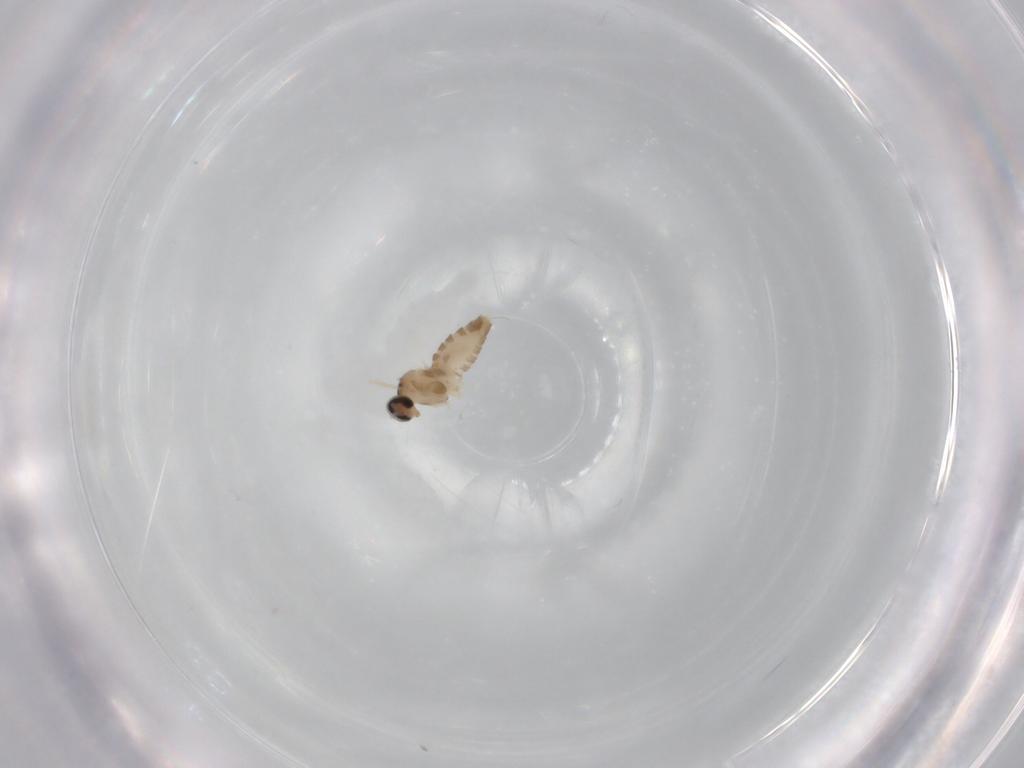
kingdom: Animalia
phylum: Arthropoda
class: Insecta
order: Diptera
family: Cecidomyiidae
